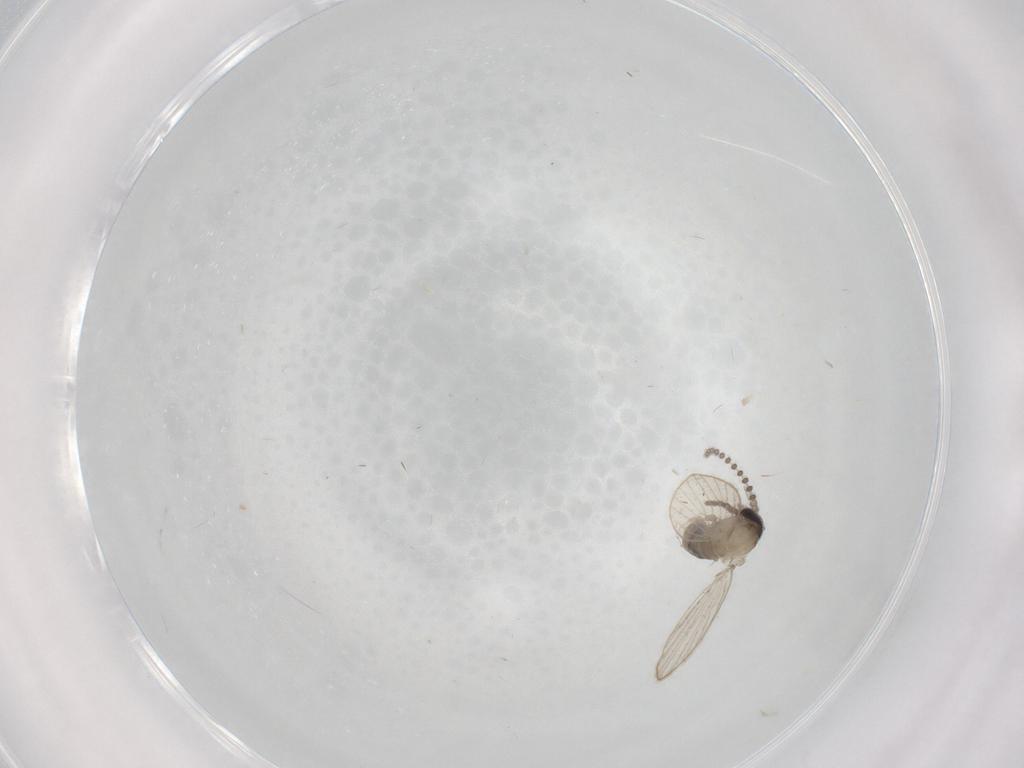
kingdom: Animalia
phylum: Arthropoda
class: Insecta
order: Diptera
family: Psychodidae
